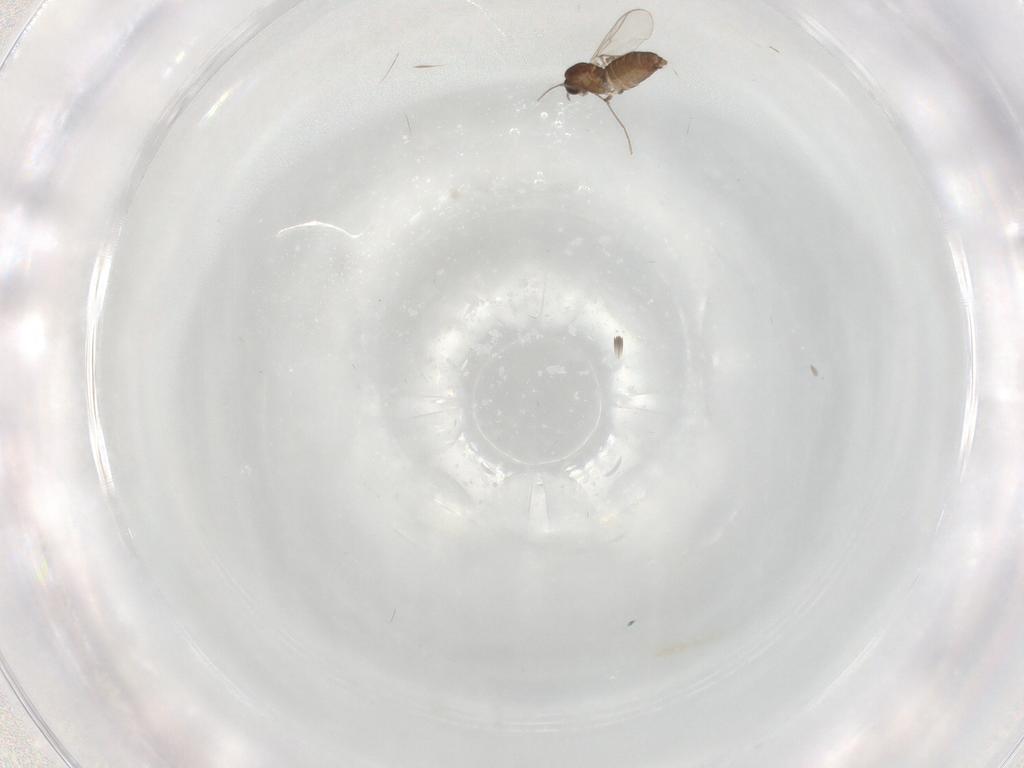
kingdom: Animalia
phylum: Arthropoda
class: Insecta
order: Diptera
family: Chironomidae
